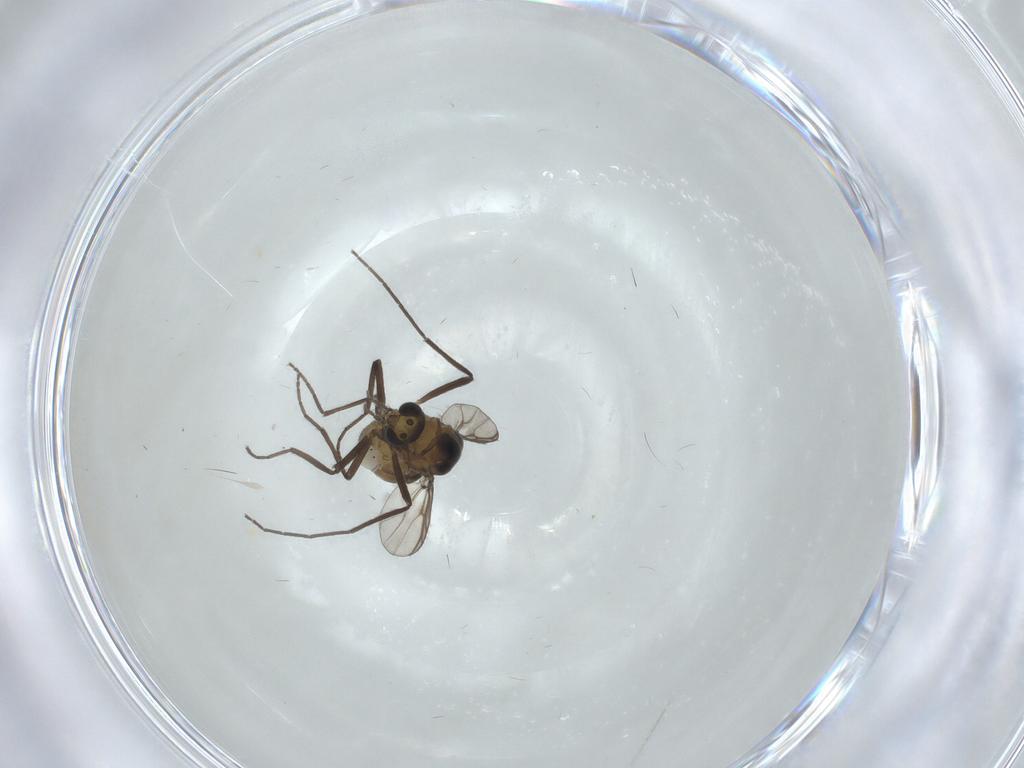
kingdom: Animalia
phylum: Arthropoda
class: Insecta
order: Diptera
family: Chironomidae
